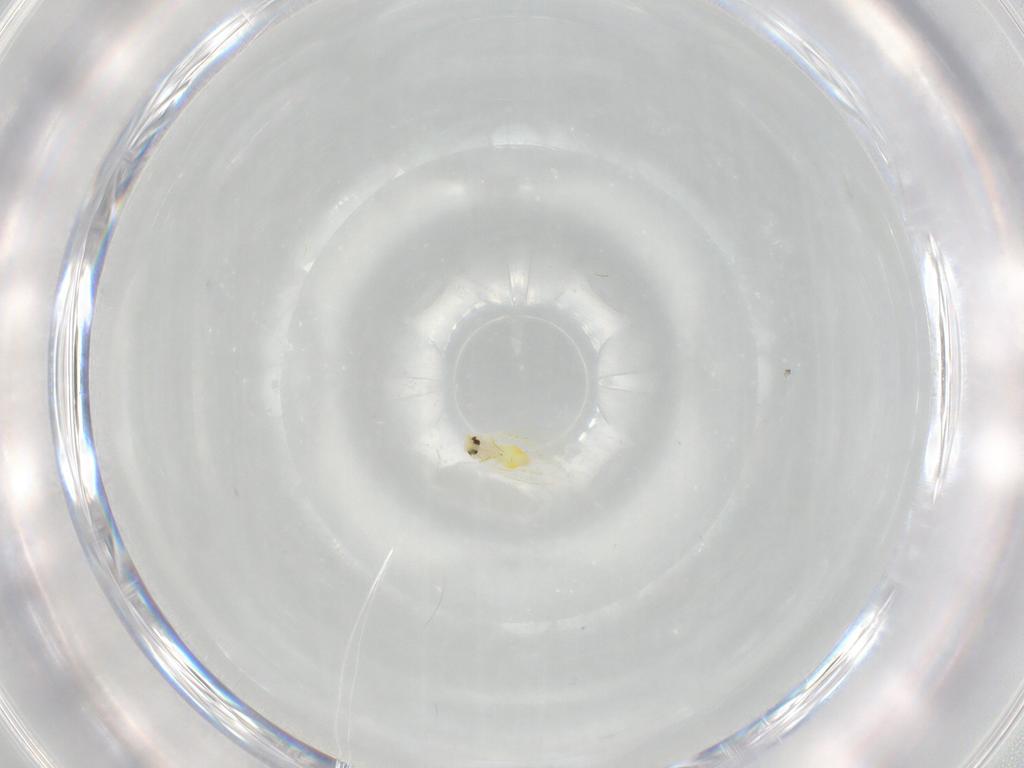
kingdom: Animalia
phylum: Arthropoda
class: Insecta
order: Hemiptera
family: Aleyrodidae
